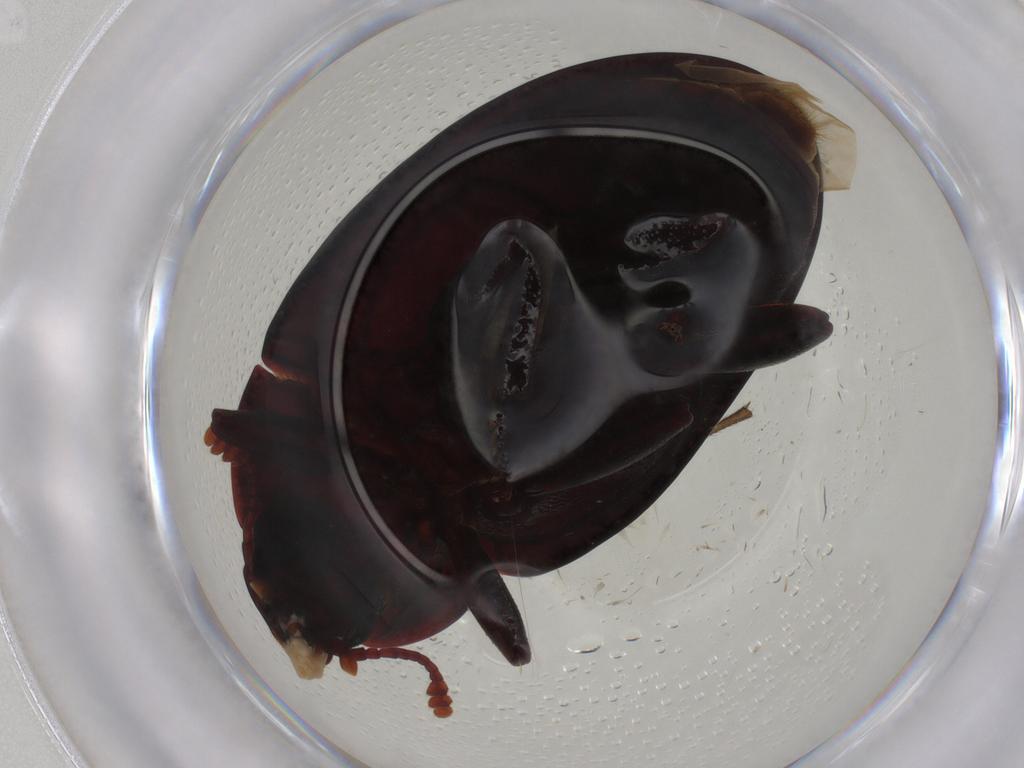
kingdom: Animalia
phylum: Arthropoda
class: Insecta
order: Coleoptera
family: Chrysomelidae
